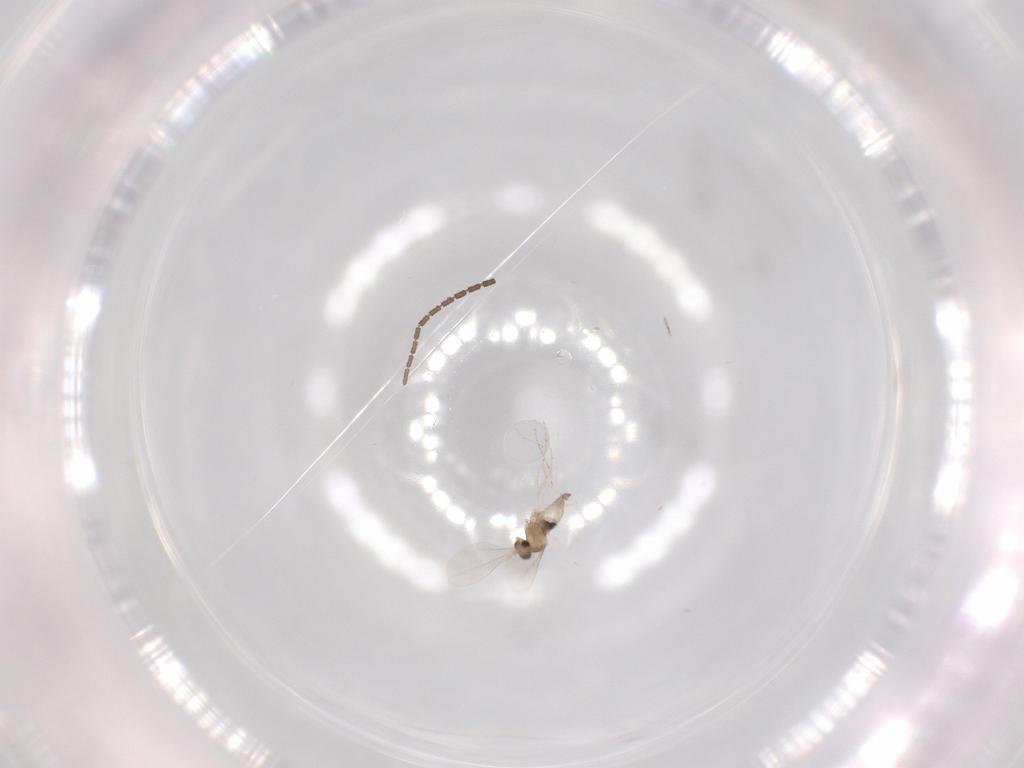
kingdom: Animalia
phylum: Arthropoda
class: Insecta
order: Diptera
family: Cecidomyiidae
